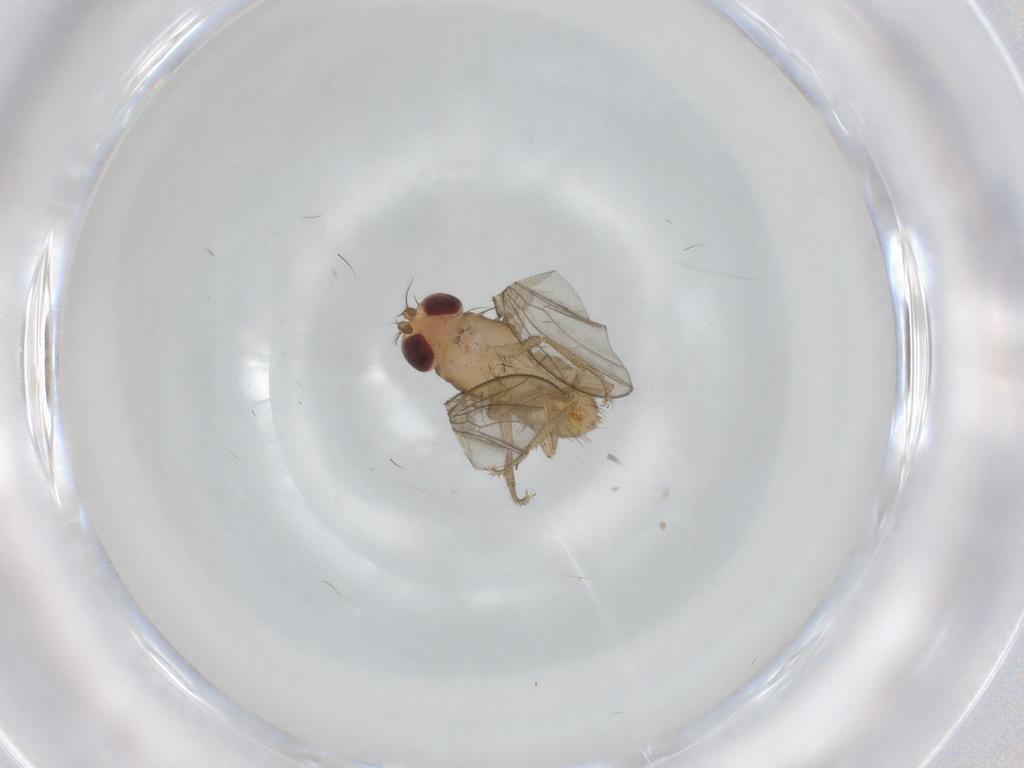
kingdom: Animalia
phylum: Arthropoda
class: Insecta
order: Diptera
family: Drosophilidae
